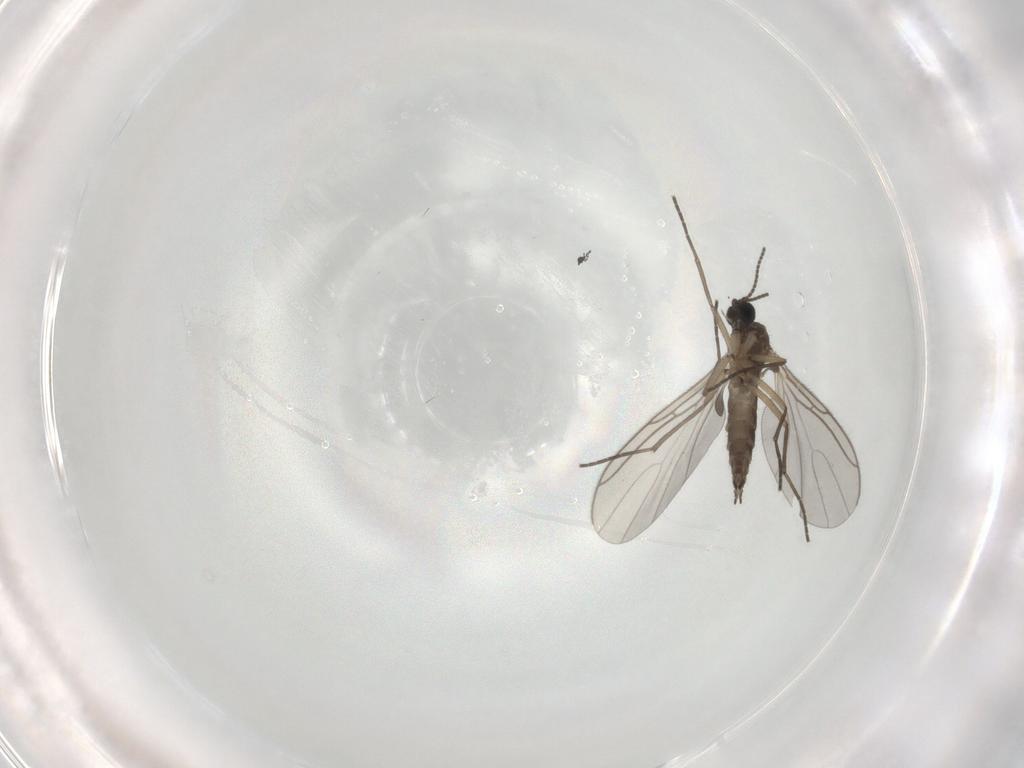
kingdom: Animalia
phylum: Arthropoda
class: Insecta
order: Diptera
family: Sciaridae
